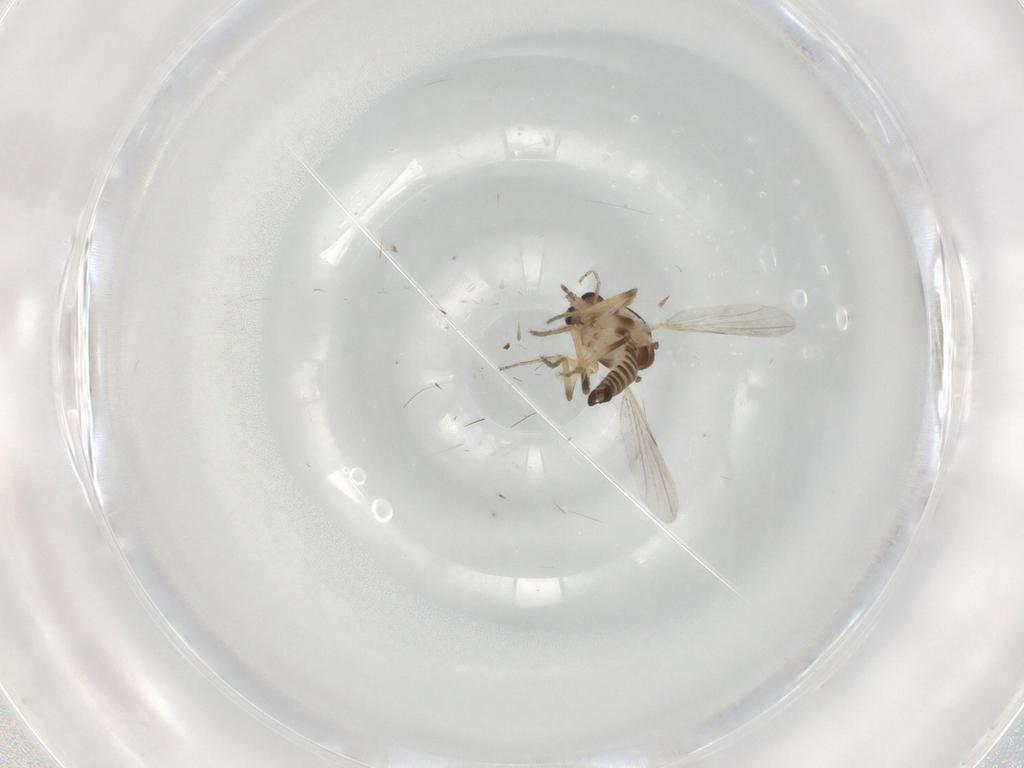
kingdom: Animalia
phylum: Arthropoda
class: Insecta
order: Diptera
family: Ceratopogonidae
